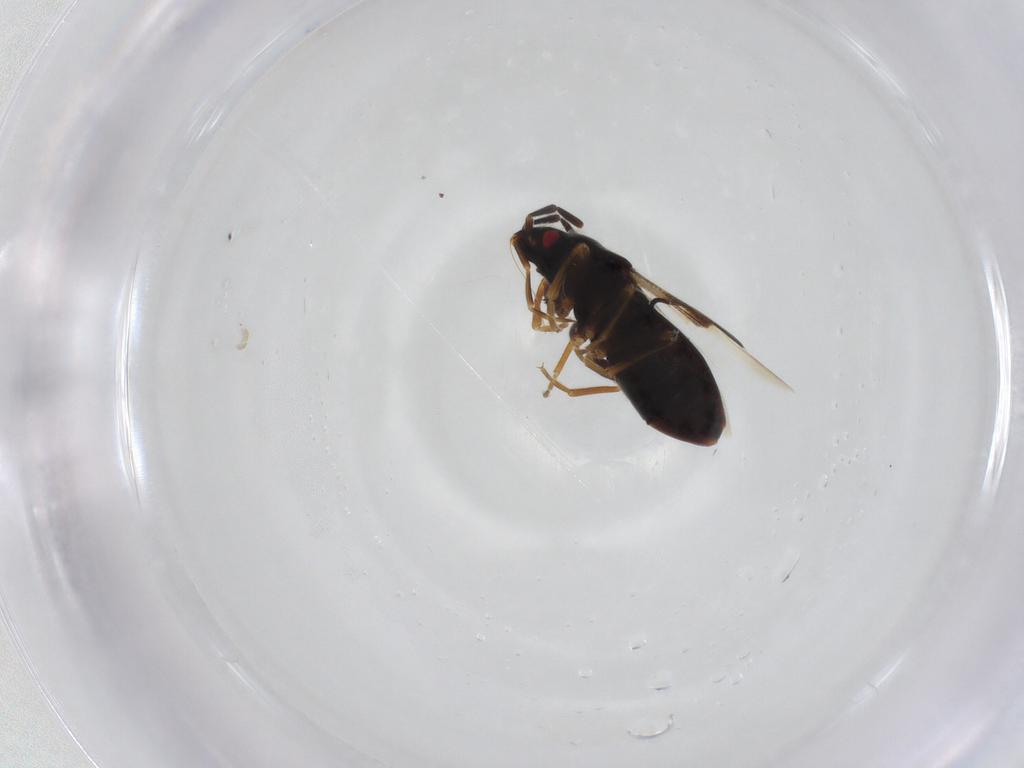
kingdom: Animalia
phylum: Arthropoda
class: Insecta
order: Hemiptera
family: Rhyparochromidae
